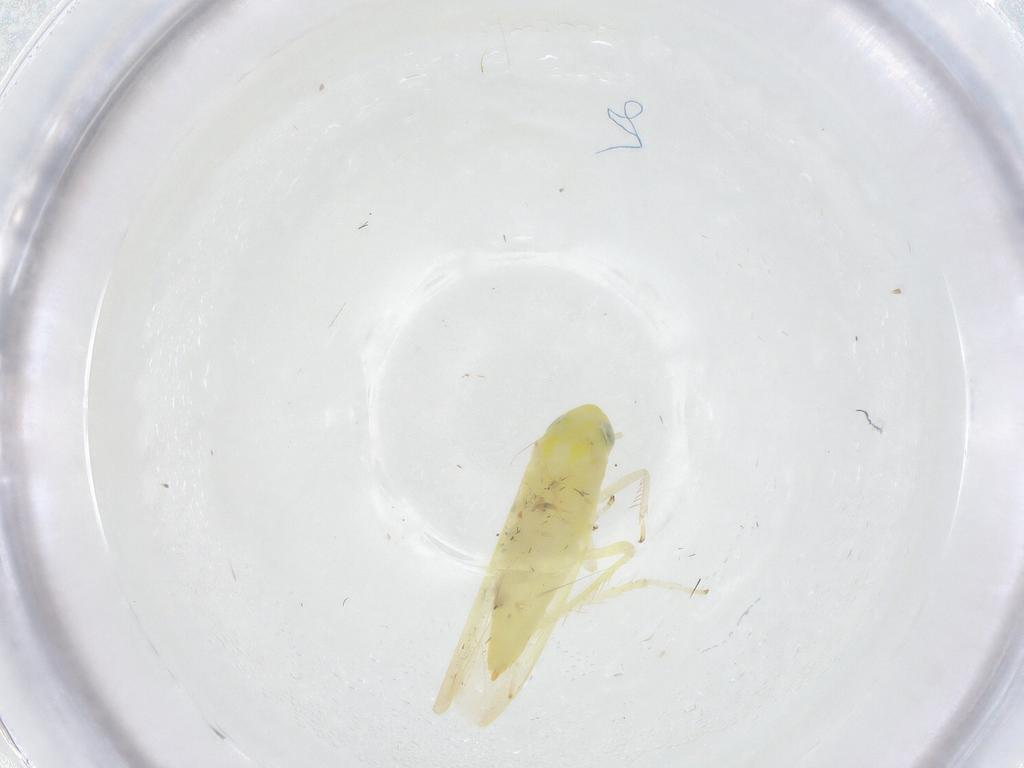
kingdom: Animalia
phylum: Arthropoda
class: Insecta
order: Hemiptera
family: Cicadellidae
